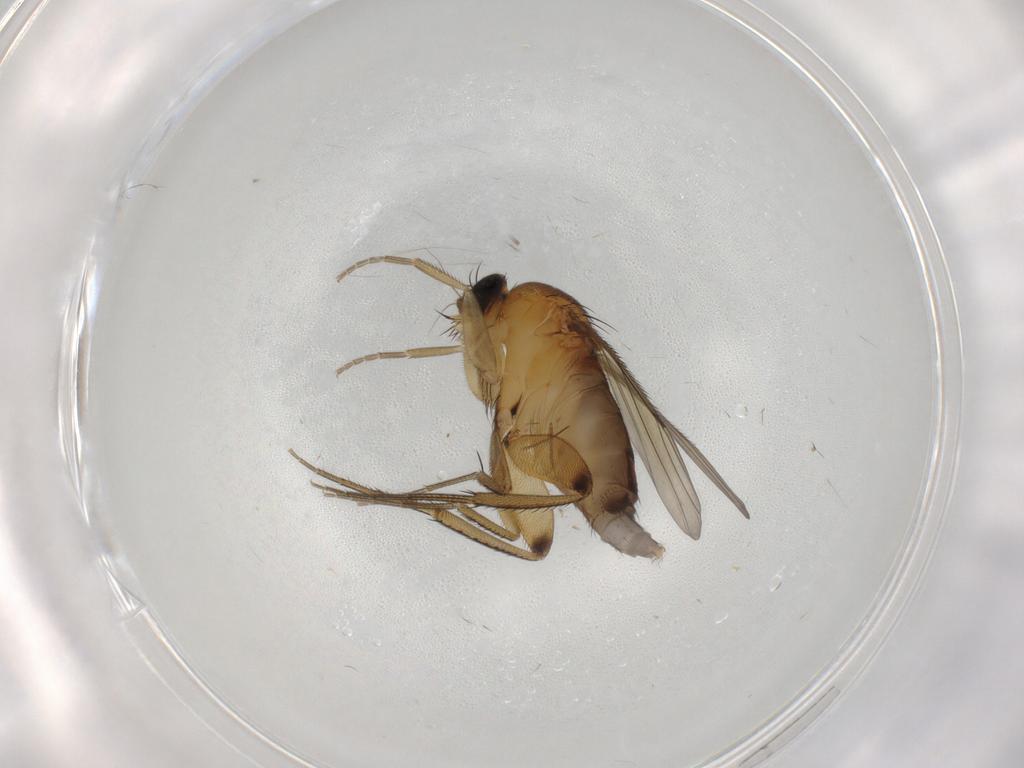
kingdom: Animalia
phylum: Arthropoda
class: Insecta
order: Diptera
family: Phoridae
